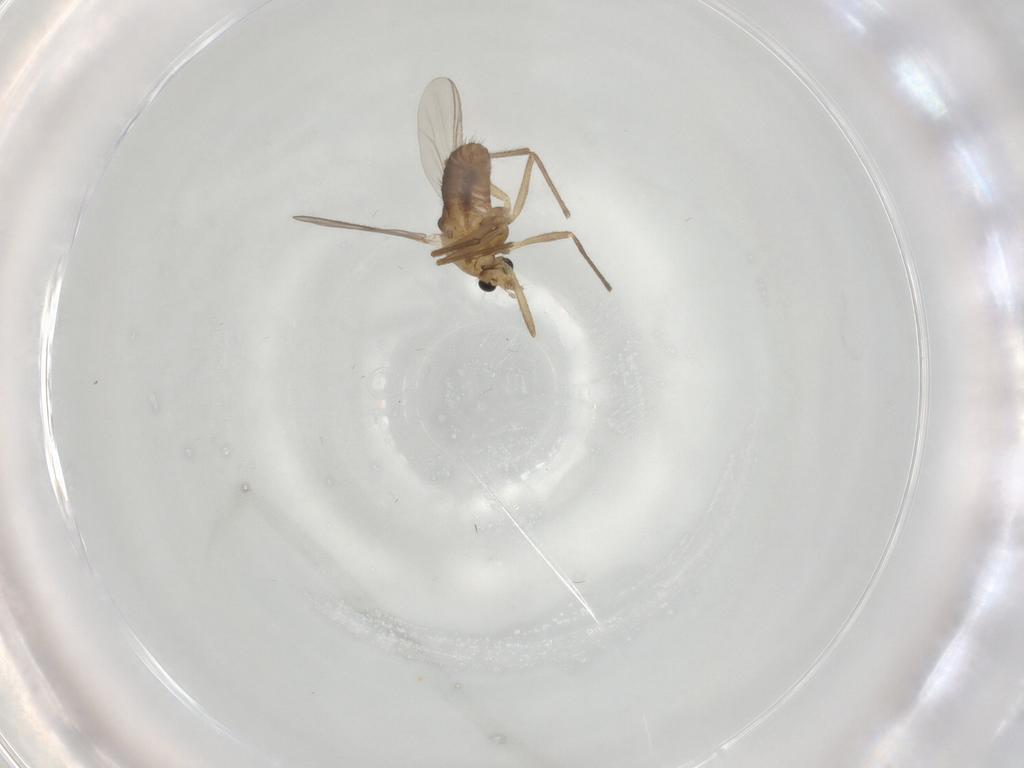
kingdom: Animalia
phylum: Arthropoda
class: Insecta
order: Diptera
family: Chironomidae
